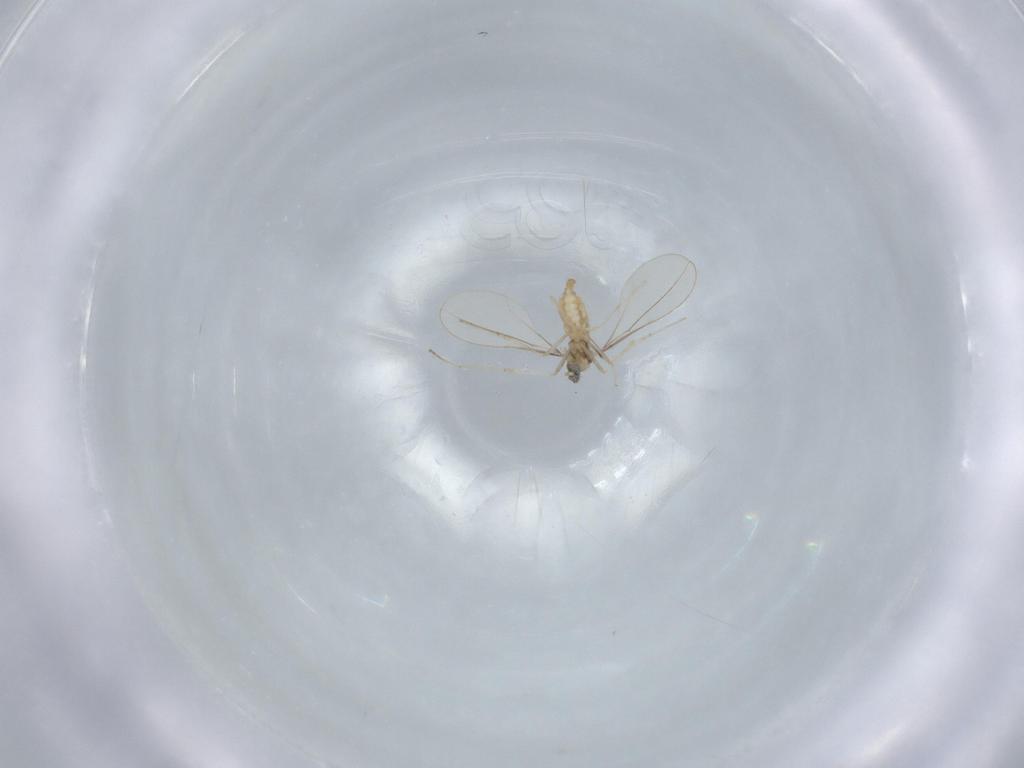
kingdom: Animalia
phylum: Arthropoda
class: Insecta
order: Diptera
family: Cecidomyiidae
